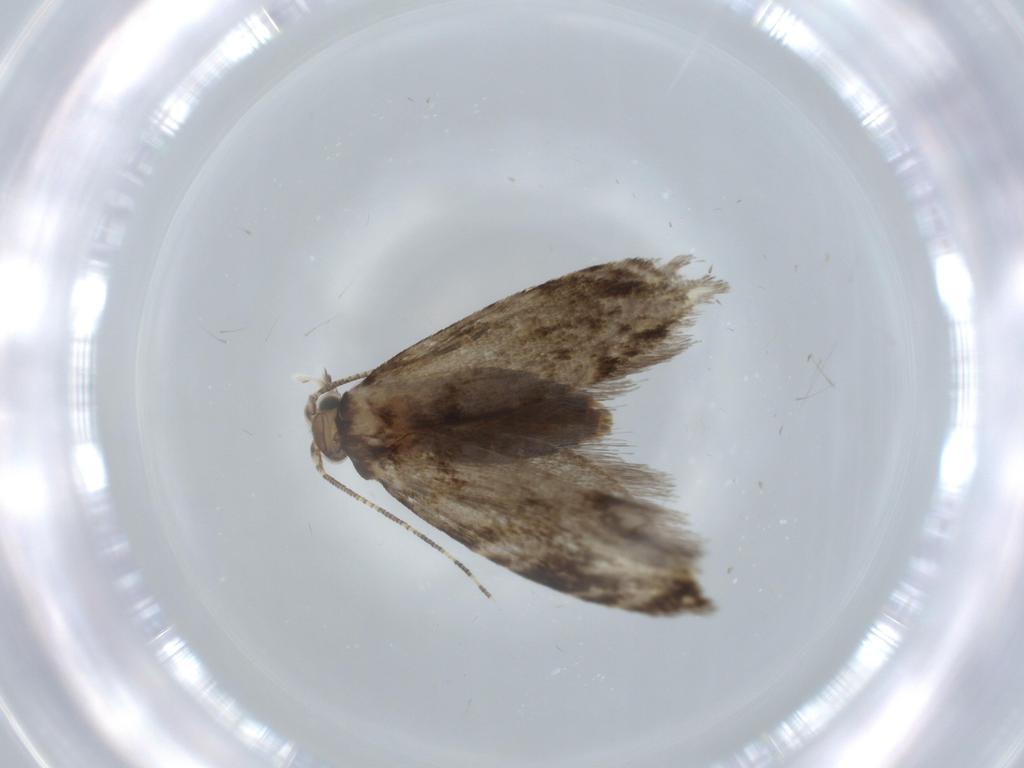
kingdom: Animalia
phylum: Arthropoda
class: Insecta
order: Lepidoptera
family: Tineidae
